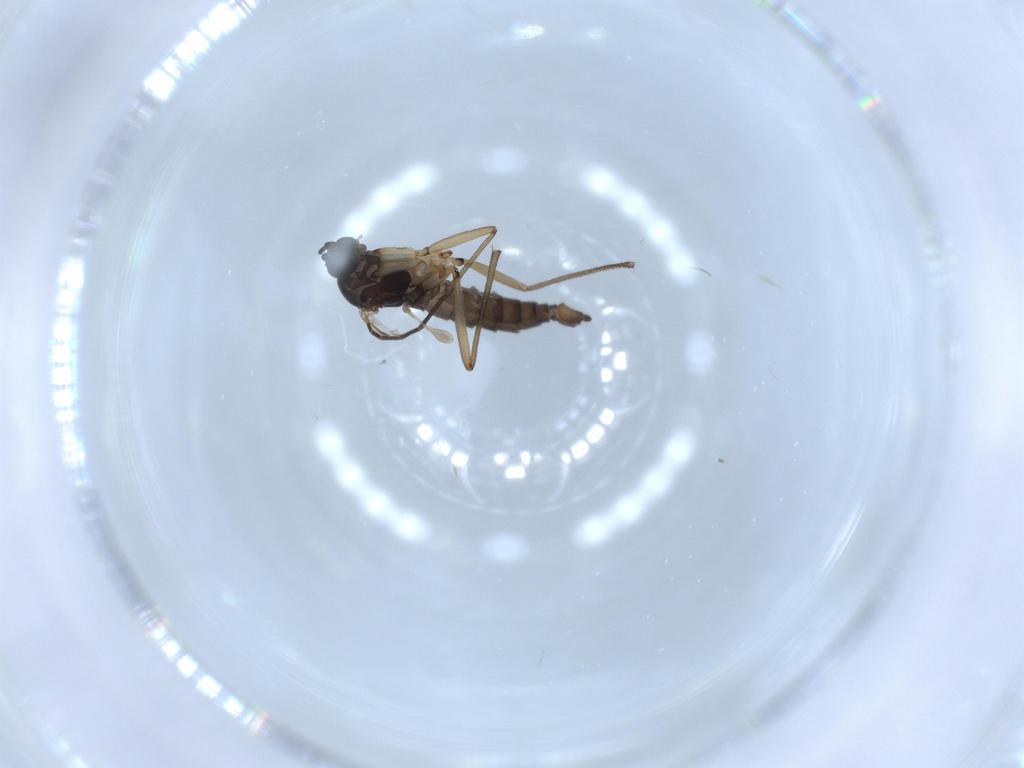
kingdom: Animalia
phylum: Arthropoda
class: Insecta
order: Diptera
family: Sciaridae
